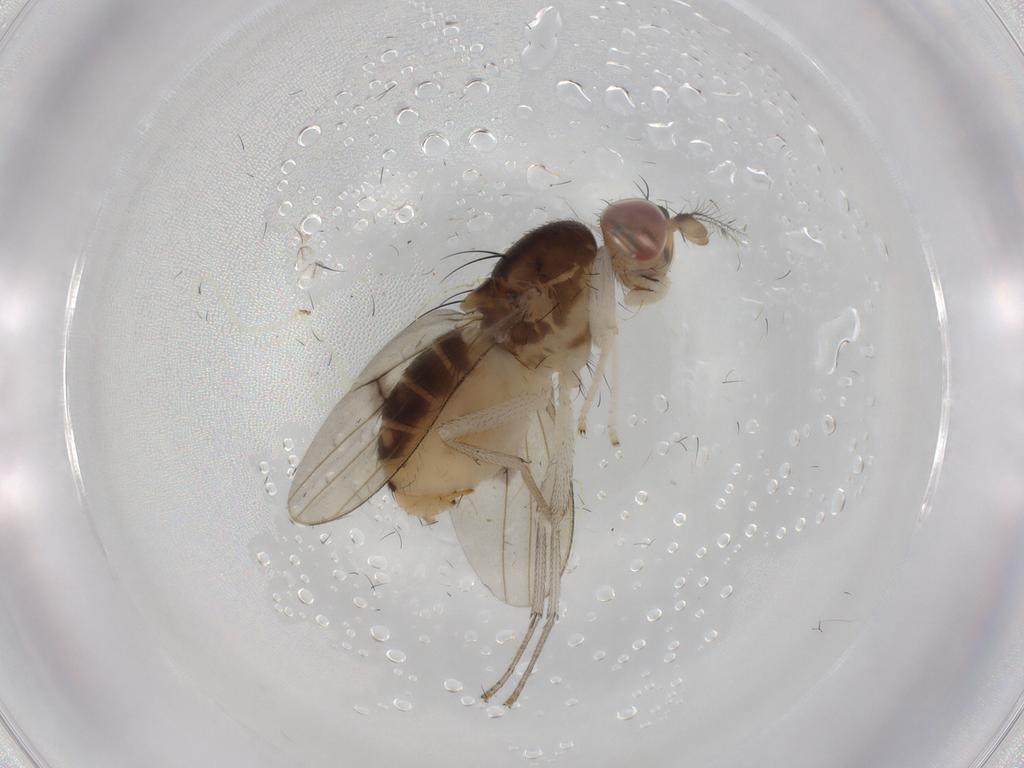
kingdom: Animalia
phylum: Arthropoda
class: Insecta
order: Diptera
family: Lauxaniidae
